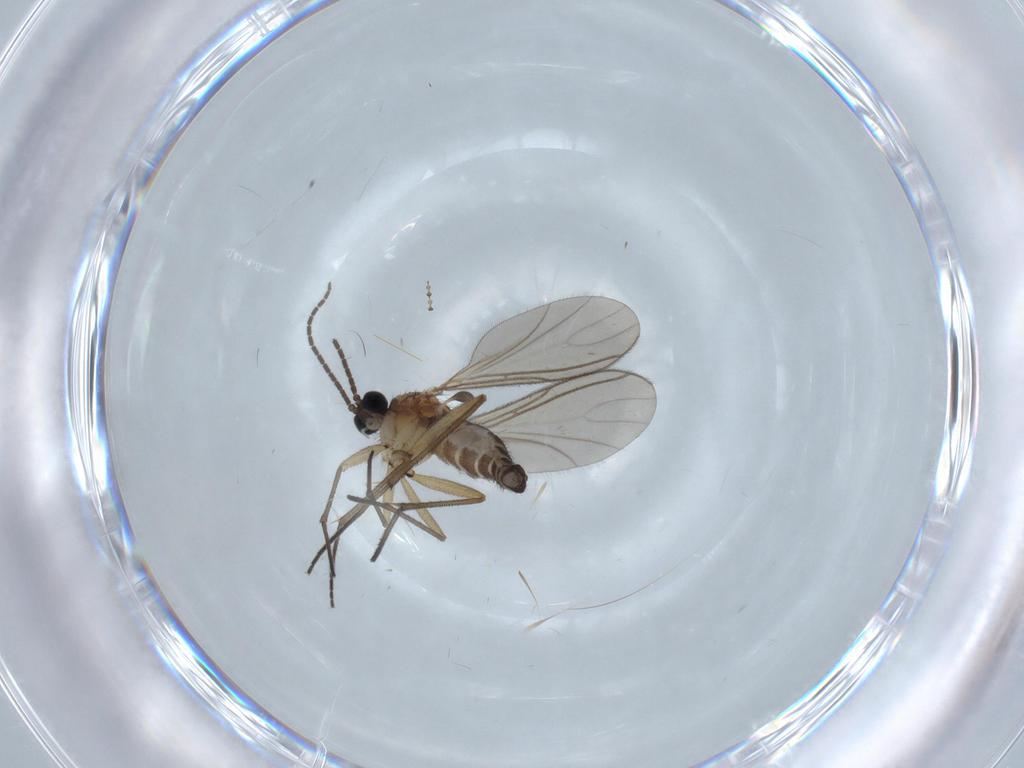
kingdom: Animalia
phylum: Arthropoda
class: Insecta
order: Diptera
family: Cecidomyiidae
